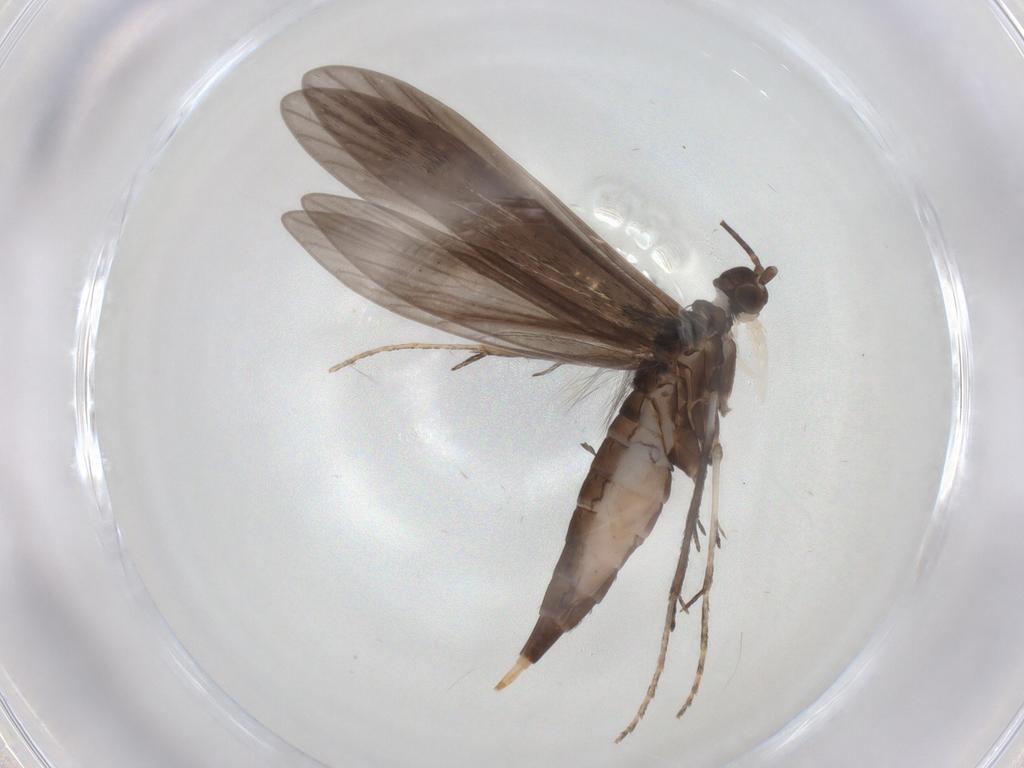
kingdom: Animalia
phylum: Arthropoda
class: Insecta
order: Trichoptera
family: Xiphocentronidae
